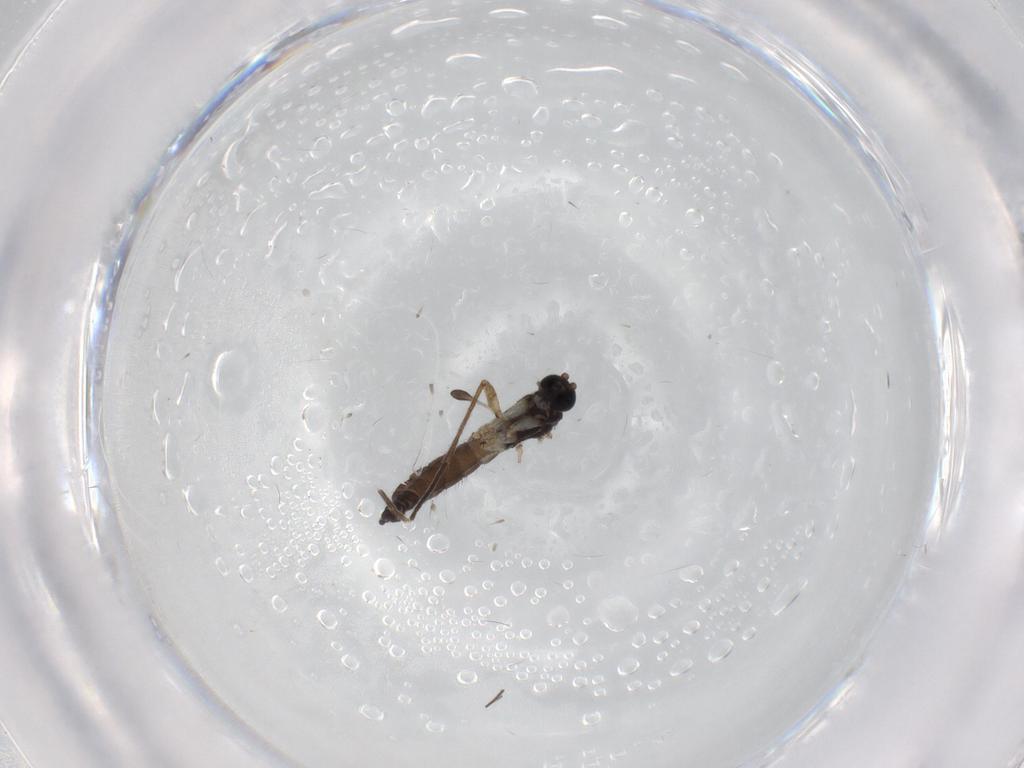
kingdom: Animalia
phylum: Arthropoda
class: Insecta
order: Diptera
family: Sciaridae
